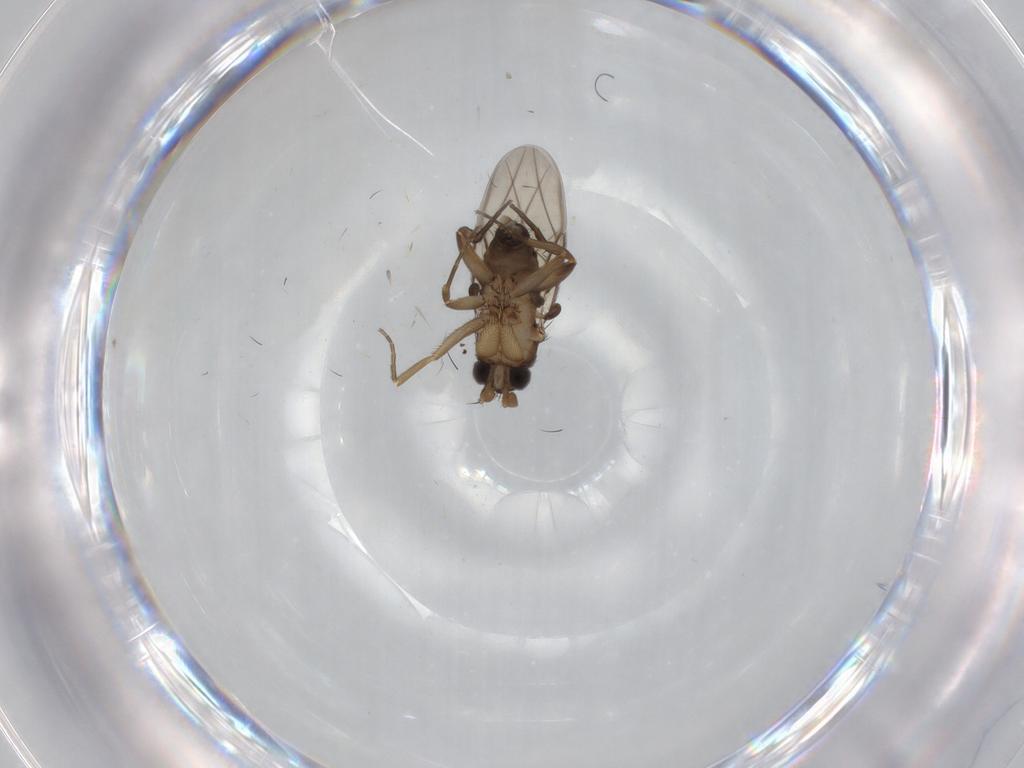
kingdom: Animalia
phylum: Arthropoda
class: Insecta
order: Diptera
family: Phoridae
